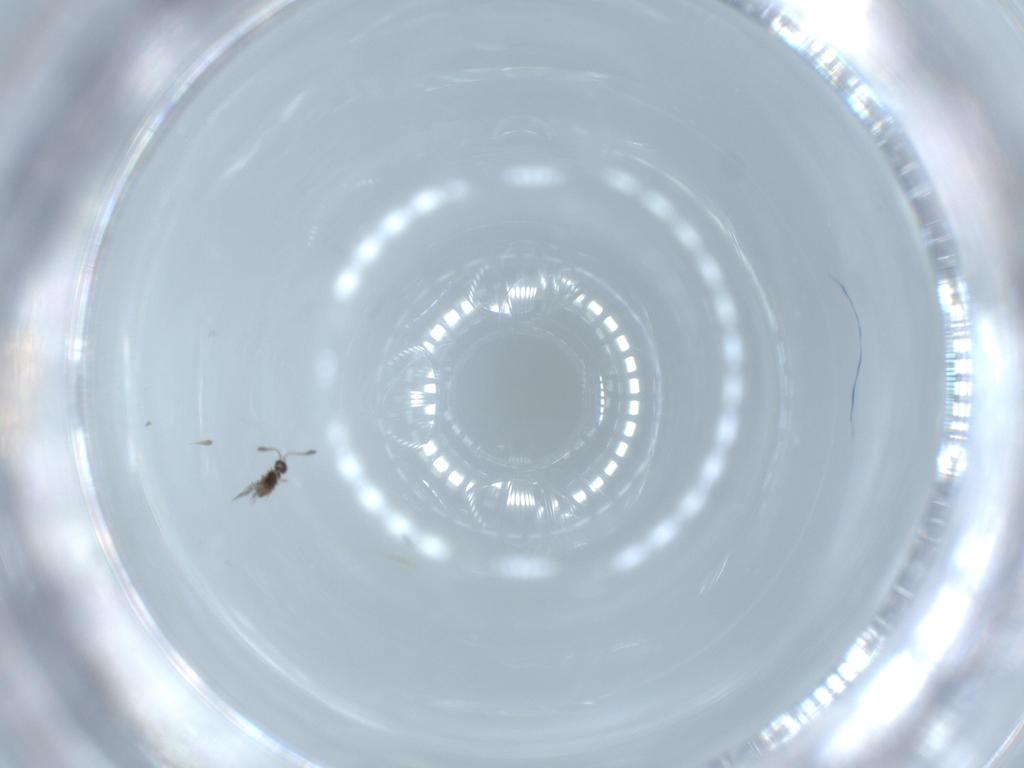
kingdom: Animalia
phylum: Arthropoda
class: Insecta
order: Hymenoptera
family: Scelionidae
